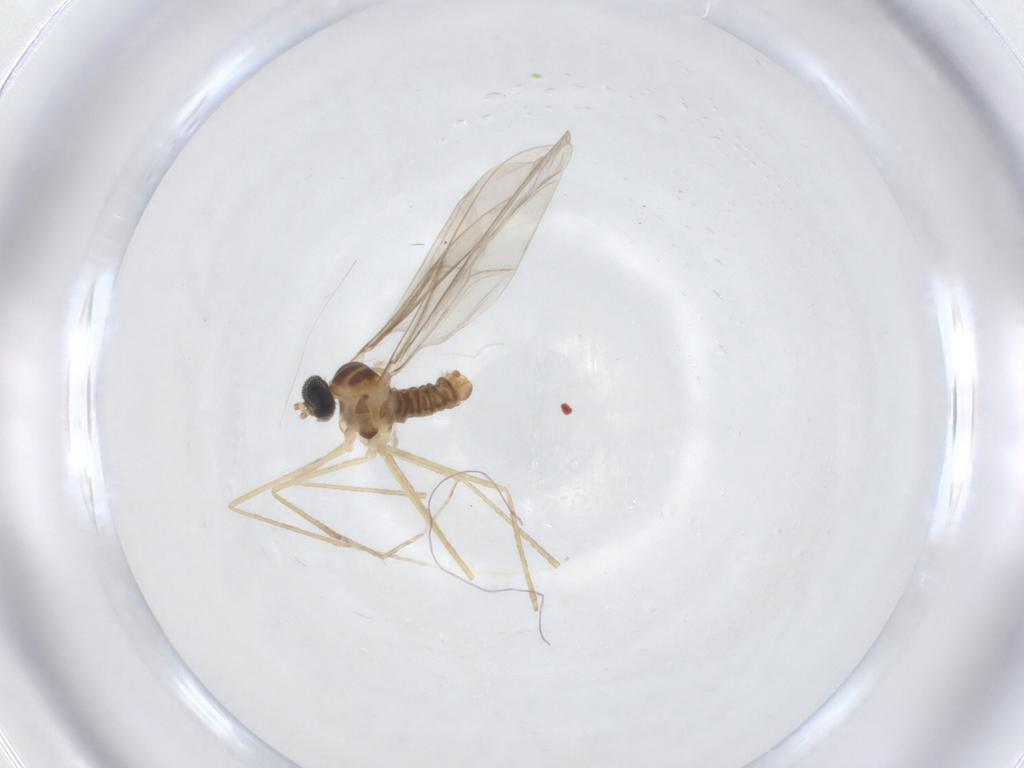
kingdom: Animalia
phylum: Arthropoda
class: Insecta
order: Diptera
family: Cecidomyiidae
